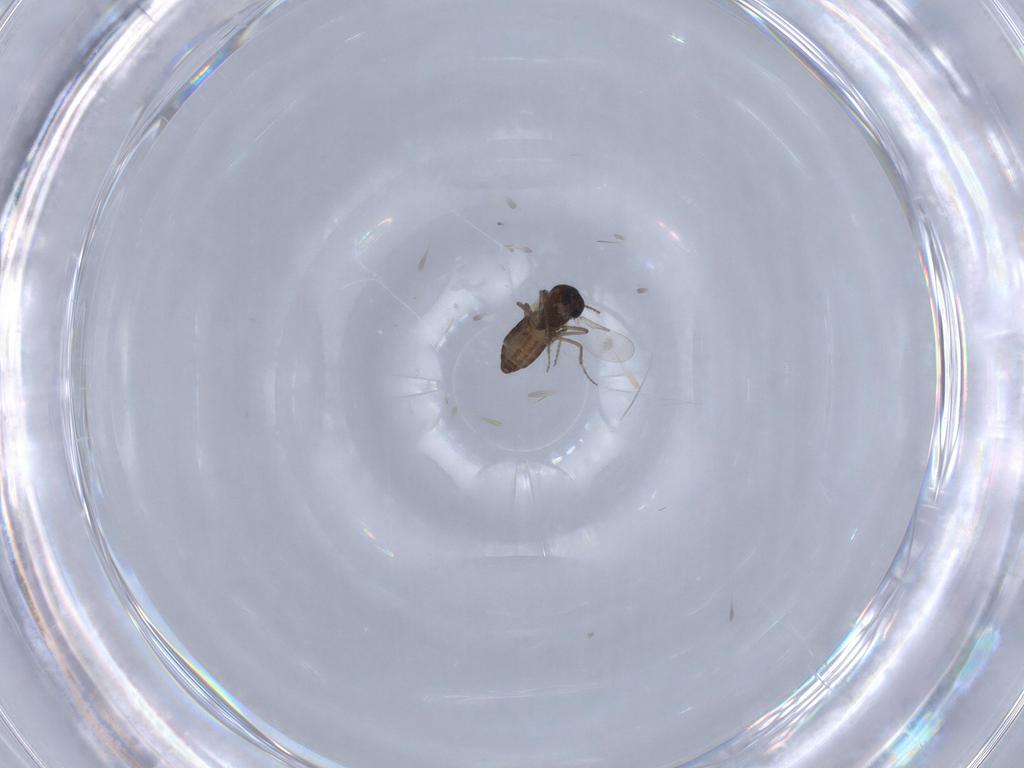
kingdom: Animalia
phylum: Arthropoda
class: Insecta
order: Diptera
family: Ceratopogonidae
